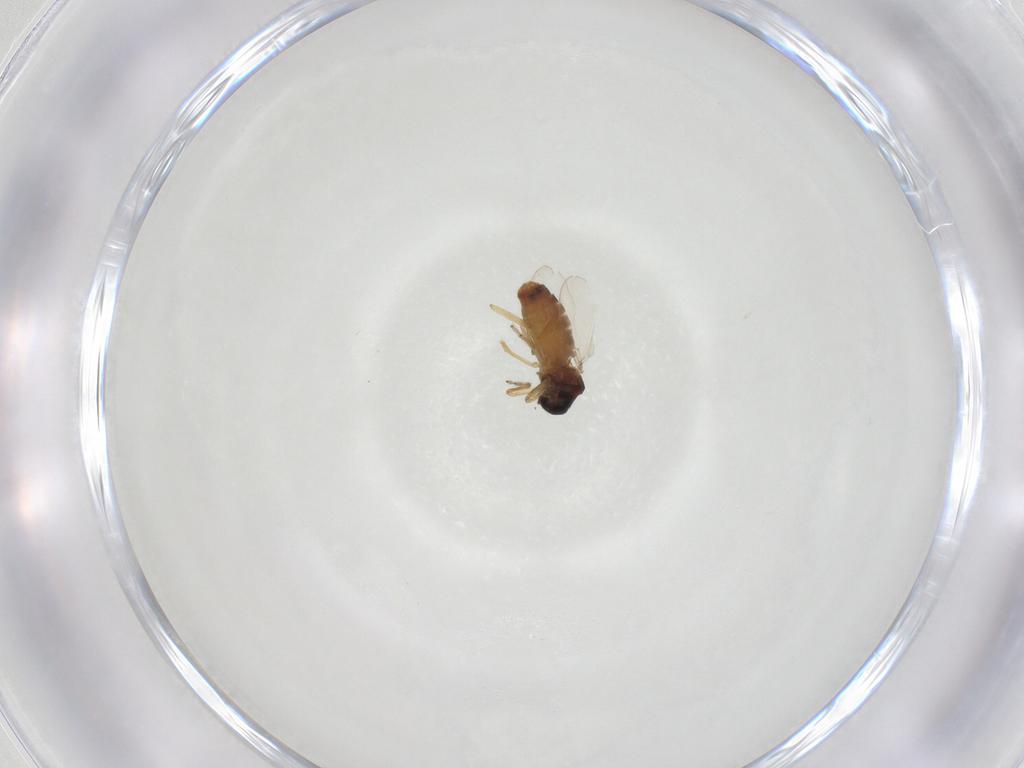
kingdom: Animalia
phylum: Arthropoda
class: Insecta
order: Diptera
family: Ceratopogonidae
